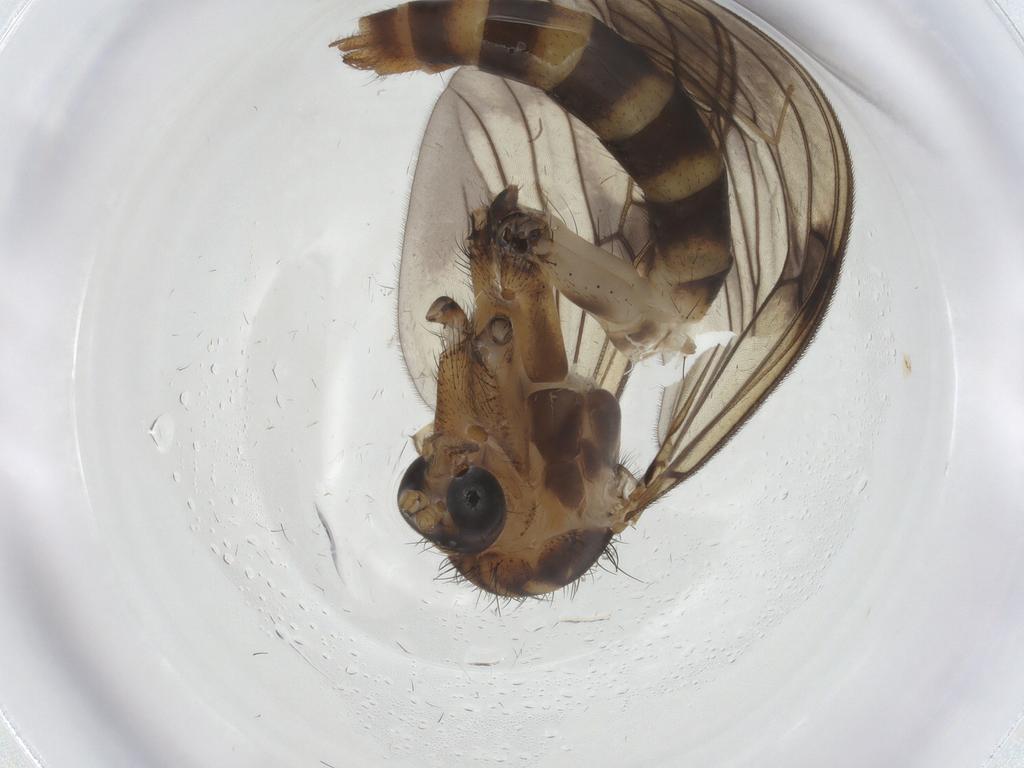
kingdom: Animalia
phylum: Arthropoda
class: Insecta
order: Diptera
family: Mycetophilidae
